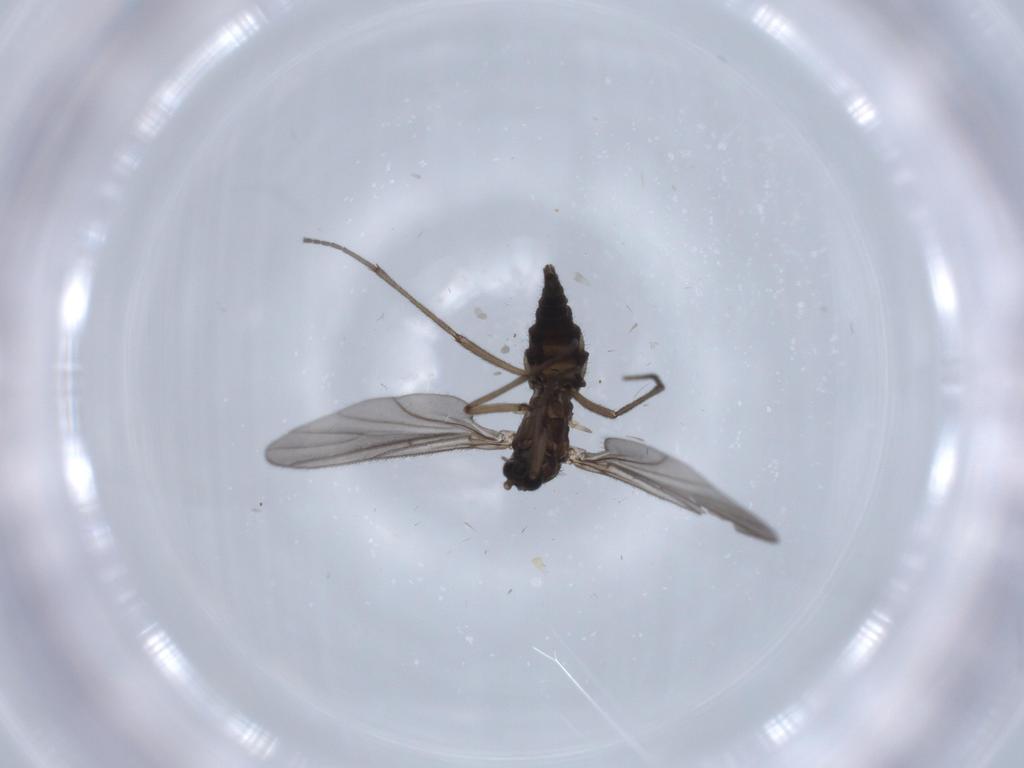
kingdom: Animalia
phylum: Arthropoda
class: Insecta
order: Diptera
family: Sciaridae
